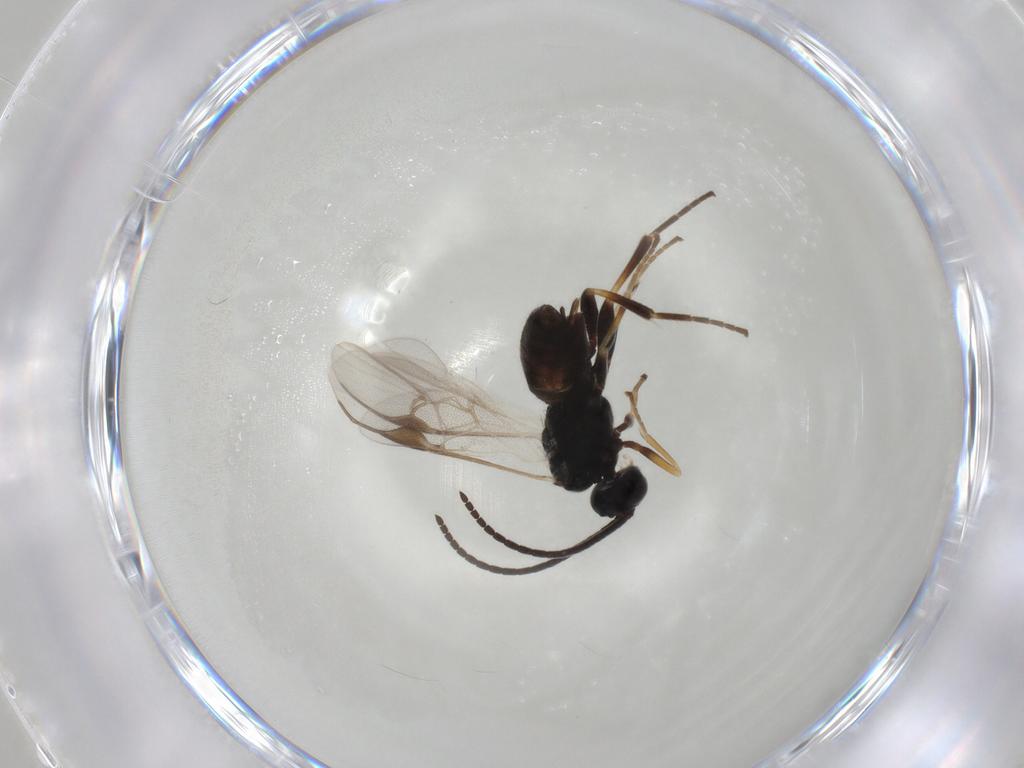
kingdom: Animalia
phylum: Arthropoda
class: Insecta
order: Hymenoptera
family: Braconidae
